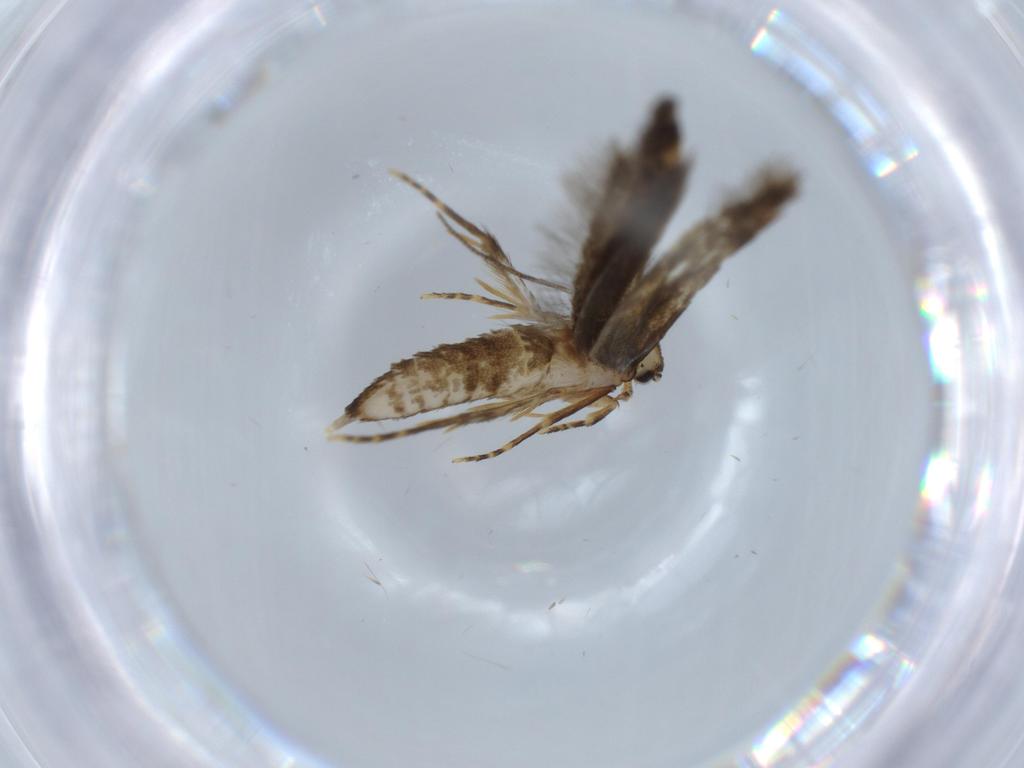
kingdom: Animalia
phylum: Arthropoda
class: Insecta
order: Lepidoptera
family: Tineidae
